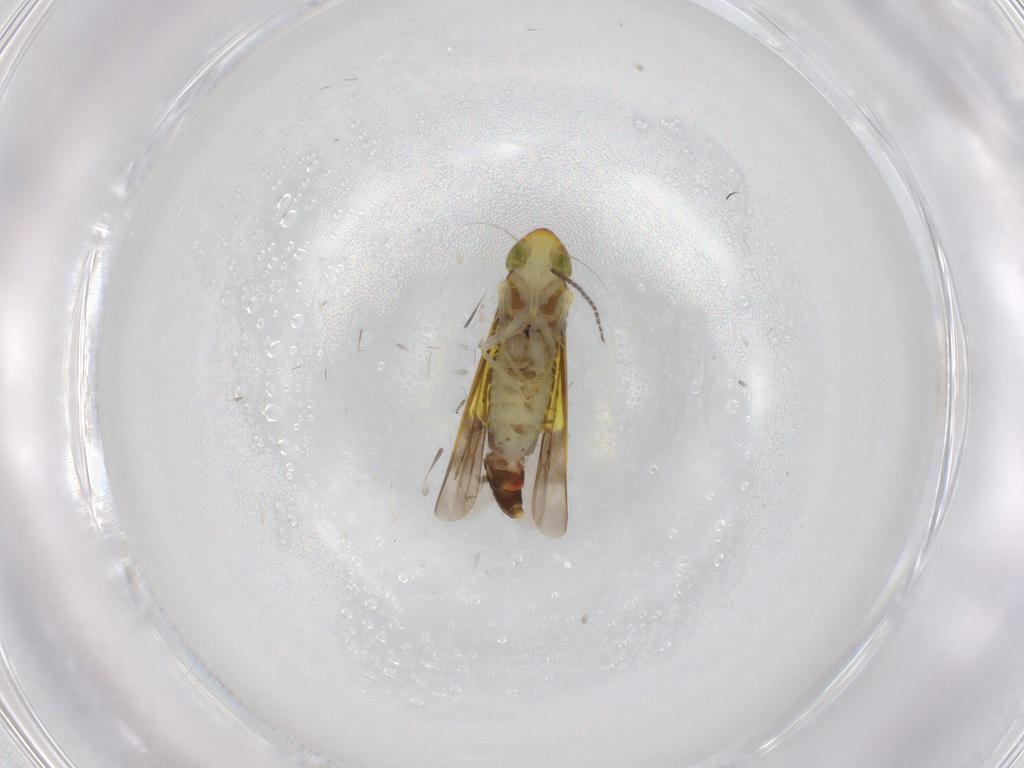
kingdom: Animalia
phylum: Arthropoda
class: Insecta
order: Hemiptera
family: Cicadellidae
